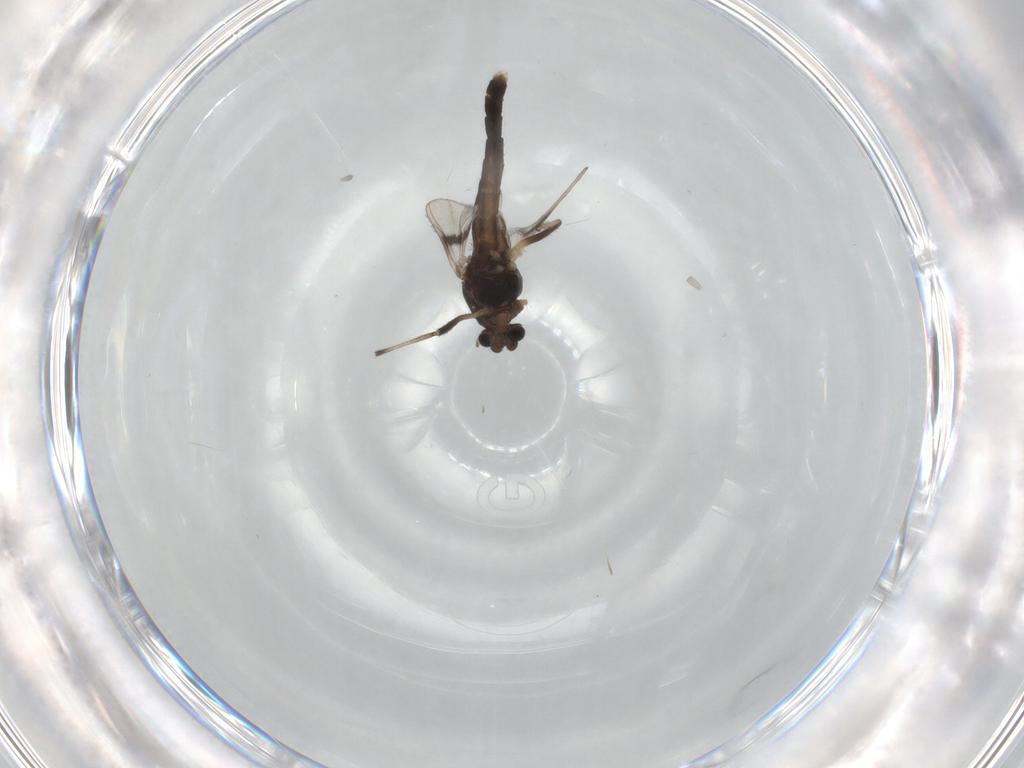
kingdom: Animalia
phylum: Arthropoda
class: Insecta
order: Diptera
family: Chironomidae
